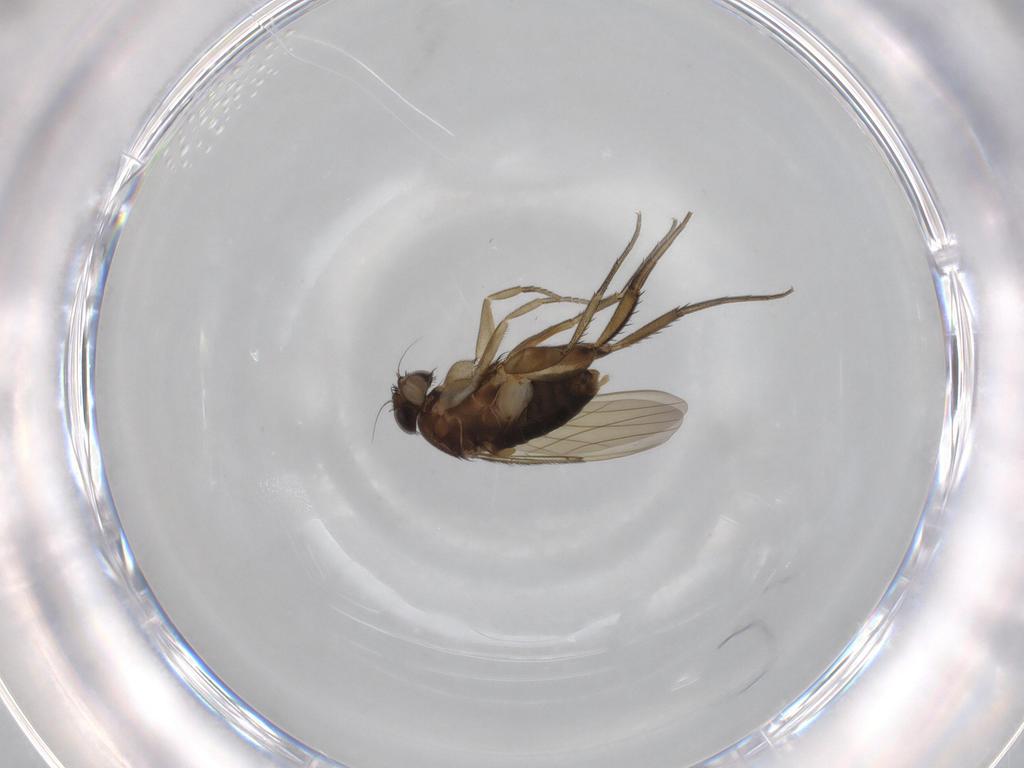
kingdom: Animalia
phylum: Arthropoda
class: Insecta
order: Diptera
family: Phoridae
